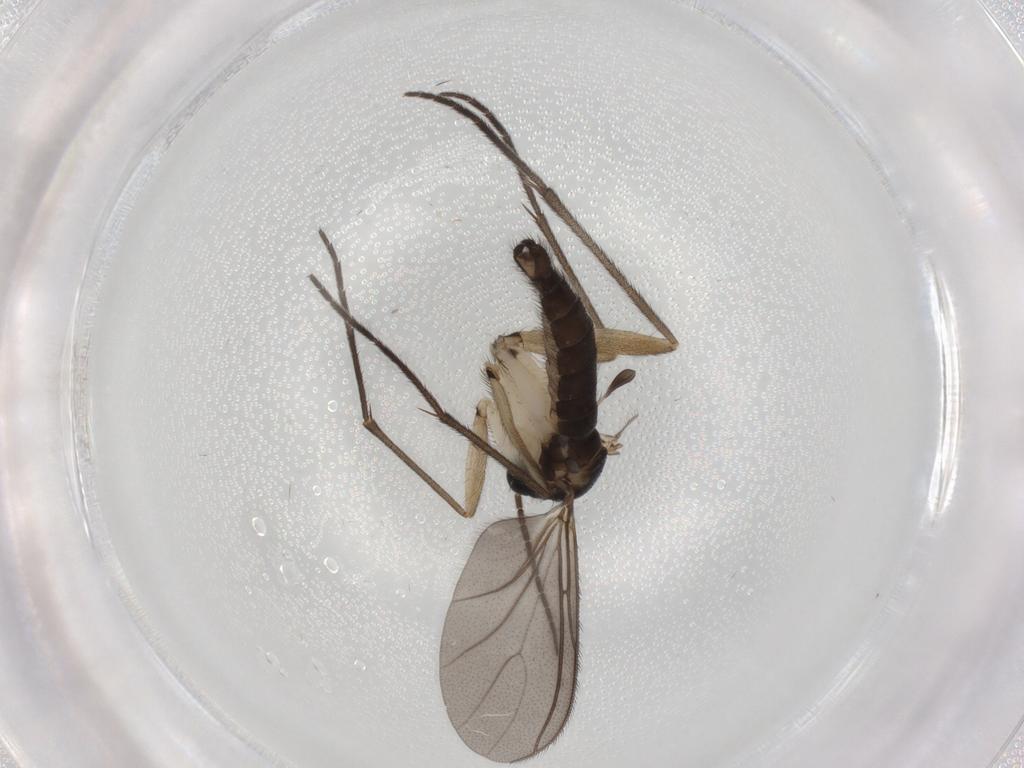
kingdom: Animalia
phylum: Arthropoda
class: Insecta
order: Diptera
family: Sciaridae
